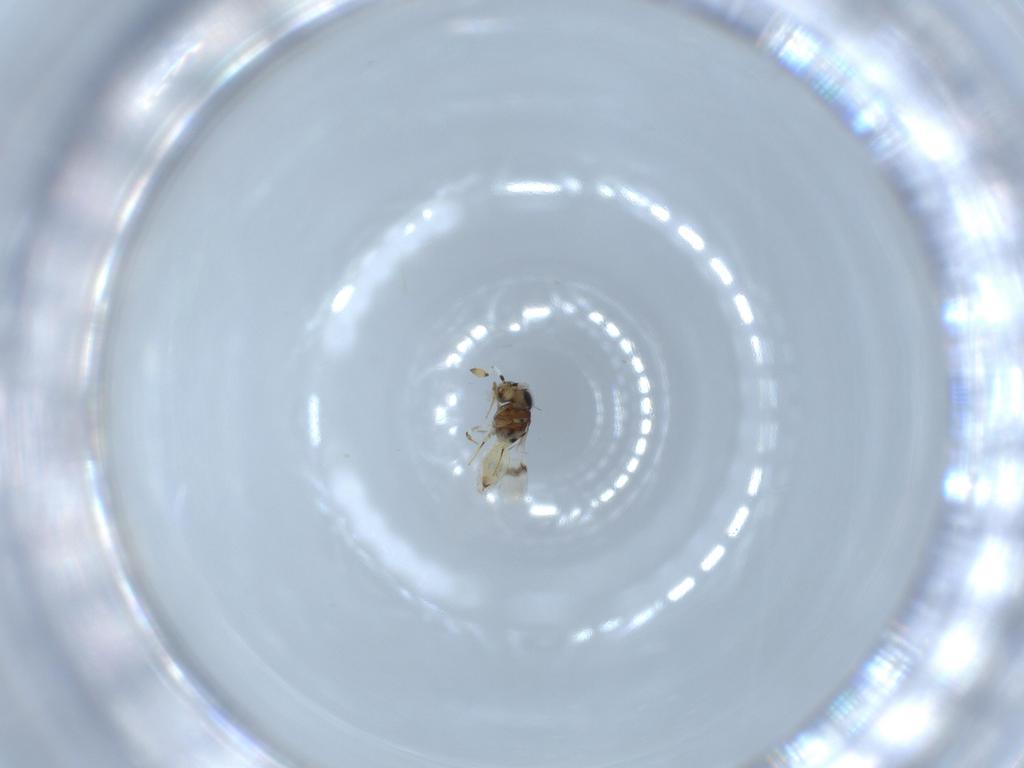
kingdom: Animalia
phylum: Arthropoda
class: Insecta
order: Hymenoptera
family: Scelionidae
